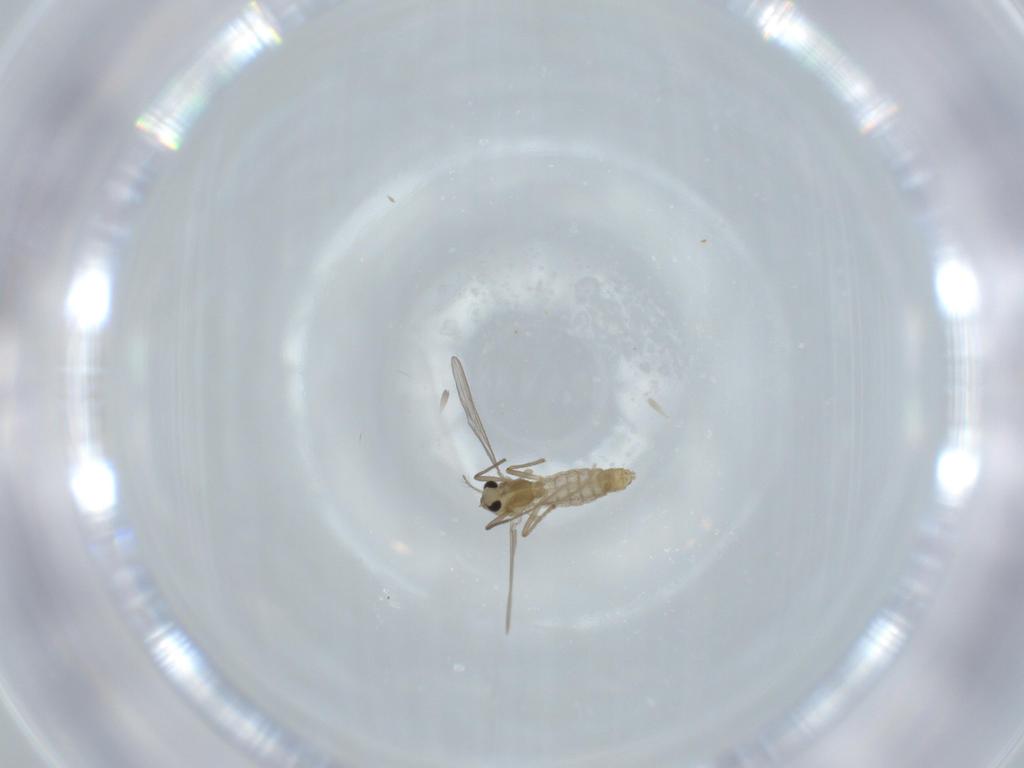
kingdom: Animalia
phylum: Arthropoda
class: Insecta
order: Diptera
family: Chironomidae
